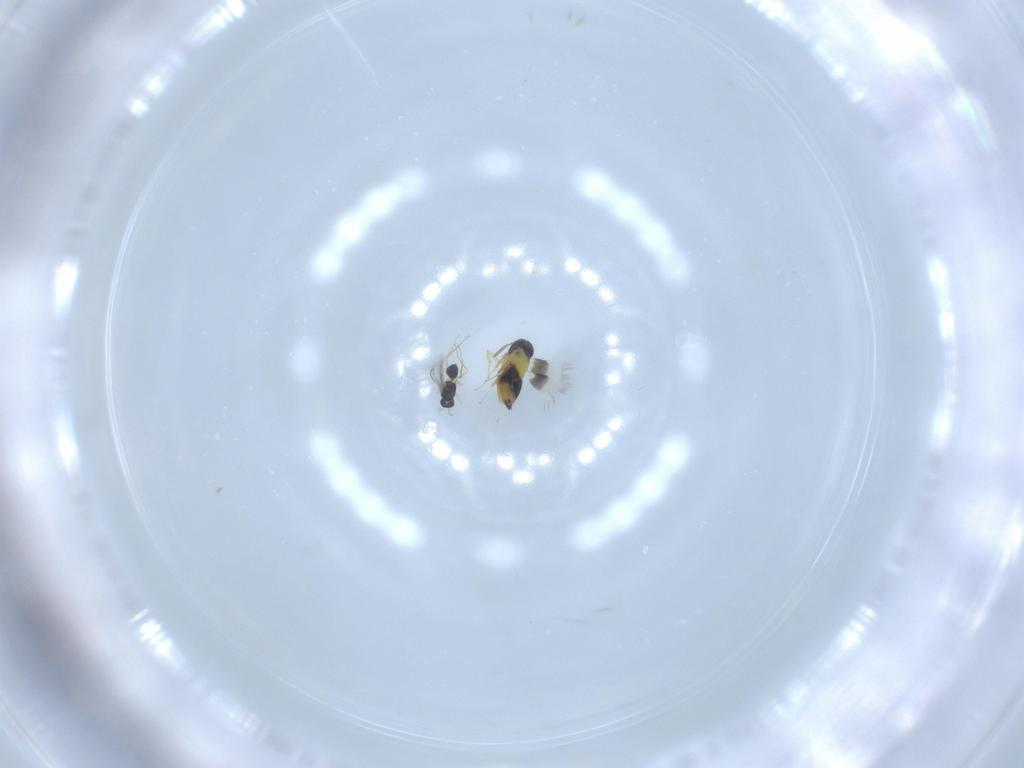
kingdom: Animalia
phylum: Arthropoda
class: Insecta
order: Hymenoptera
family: Mymaridae
